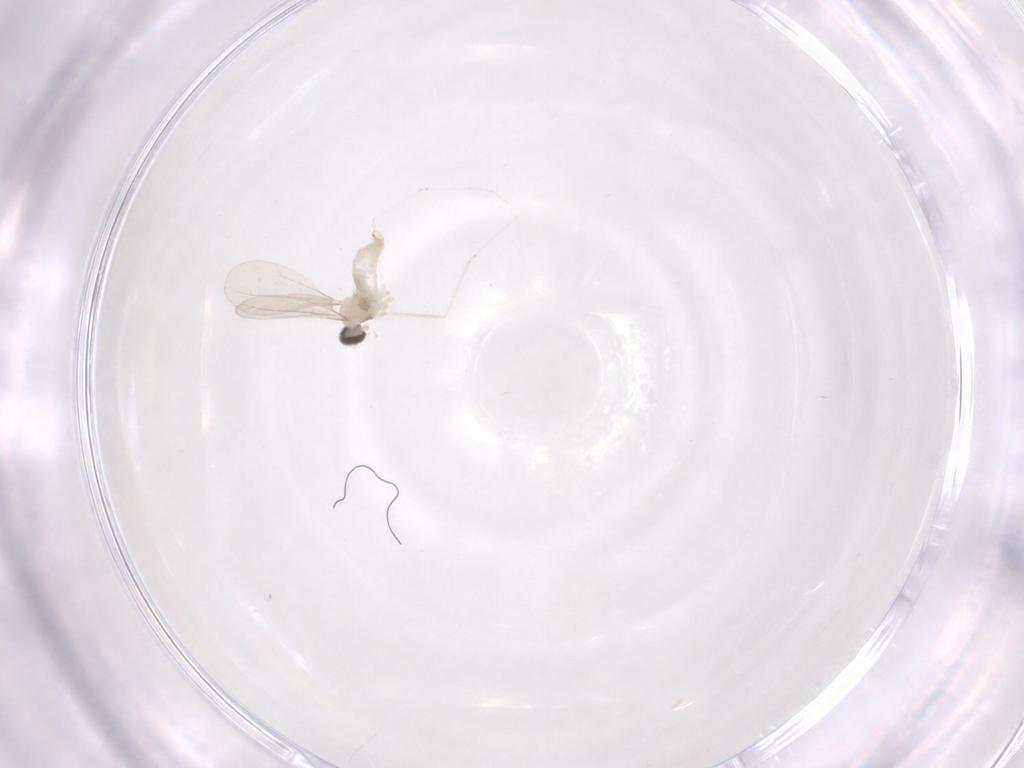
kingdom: Animalia
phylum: Arthropoda
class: Insecta
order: Diptera
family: Cecidomyiidae
